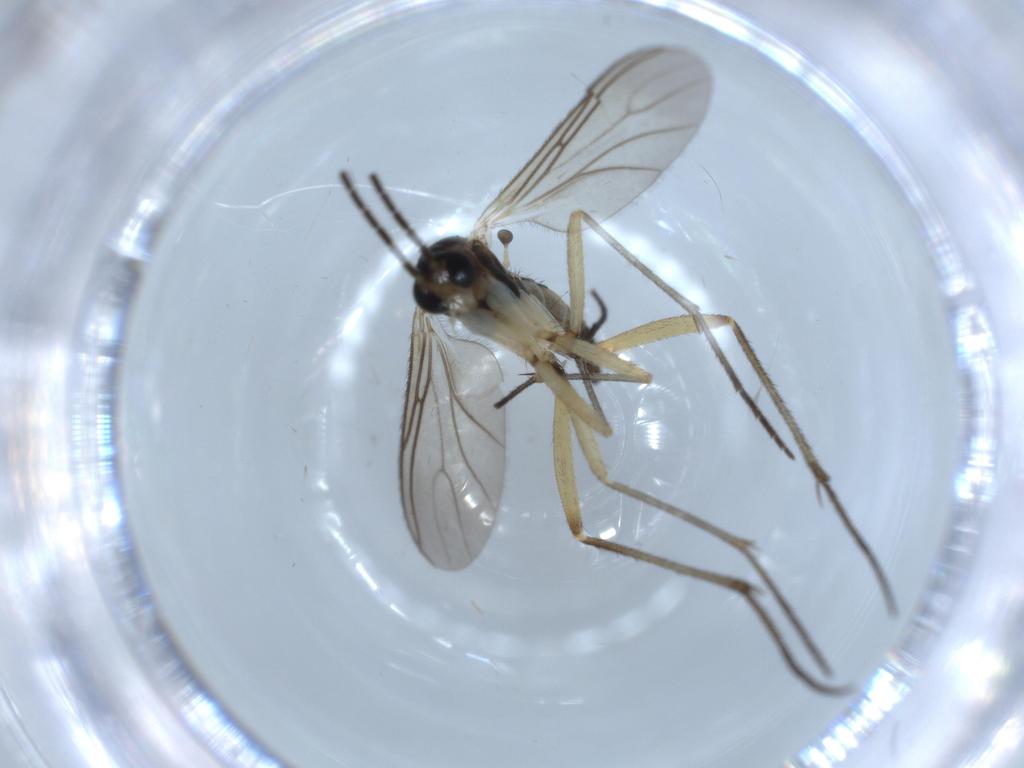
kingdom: Animalia
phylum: Arthropoda
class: Insecta
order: Diptera
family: Sciaridae
